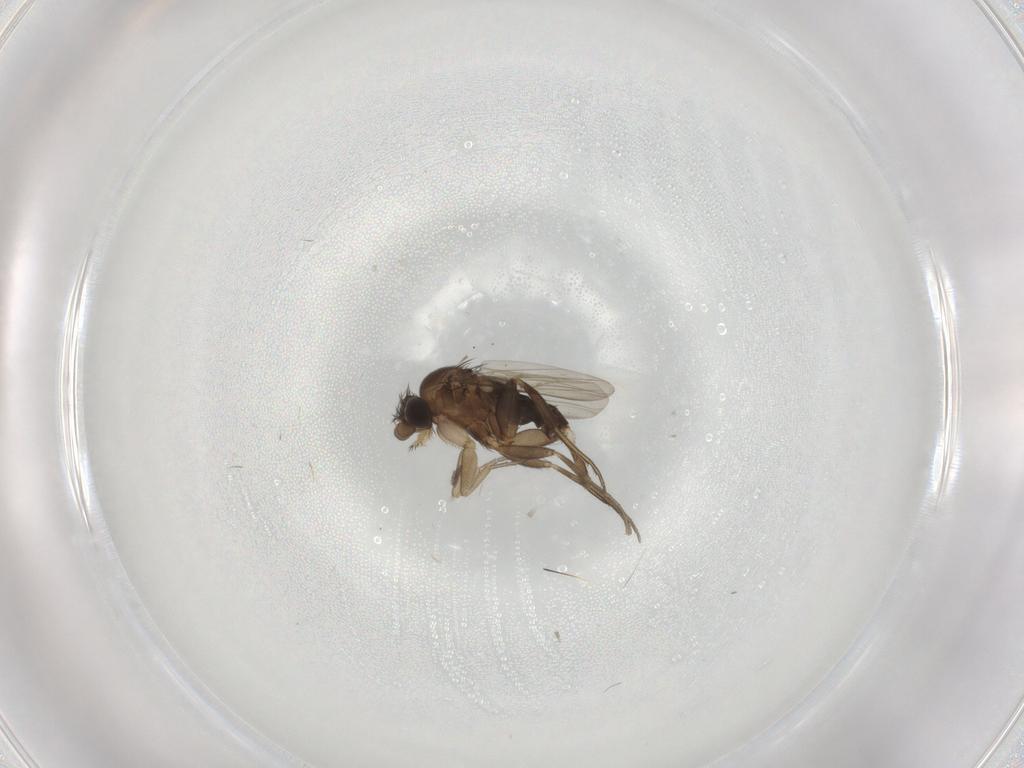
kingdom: Animalia
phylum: Arthropoda
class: Insecta
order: Diptera
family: Phoridae
